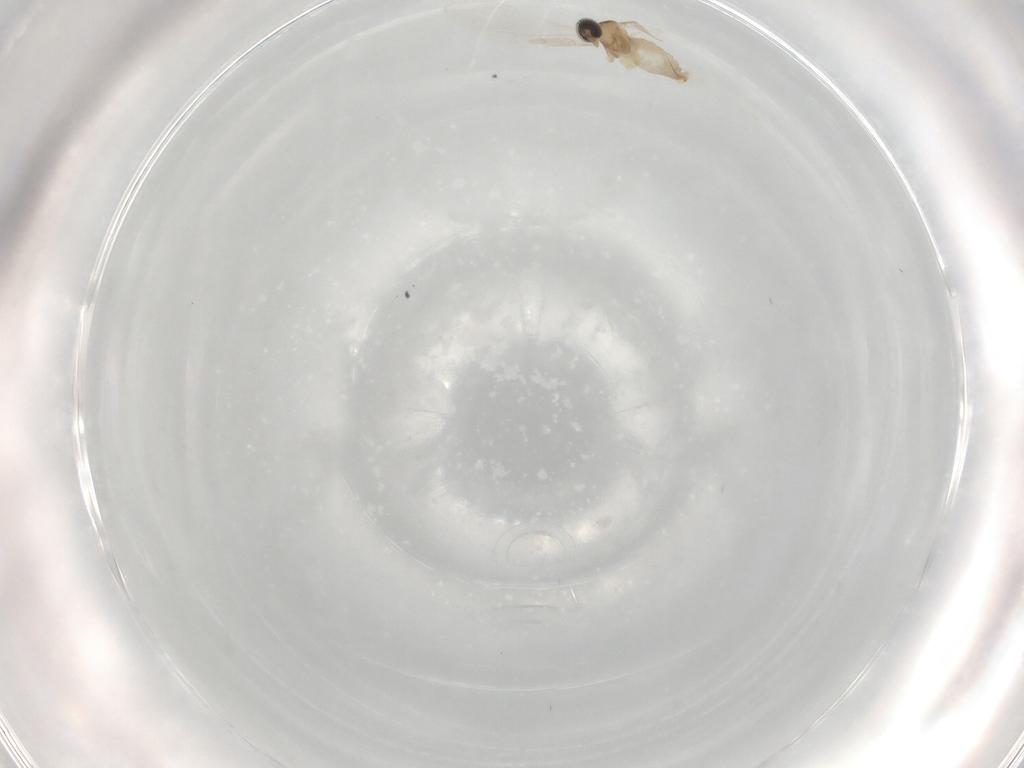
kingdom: Animalia
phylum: Arthropoda
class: Insecta
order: Diptera
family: Cecidomyiidae
